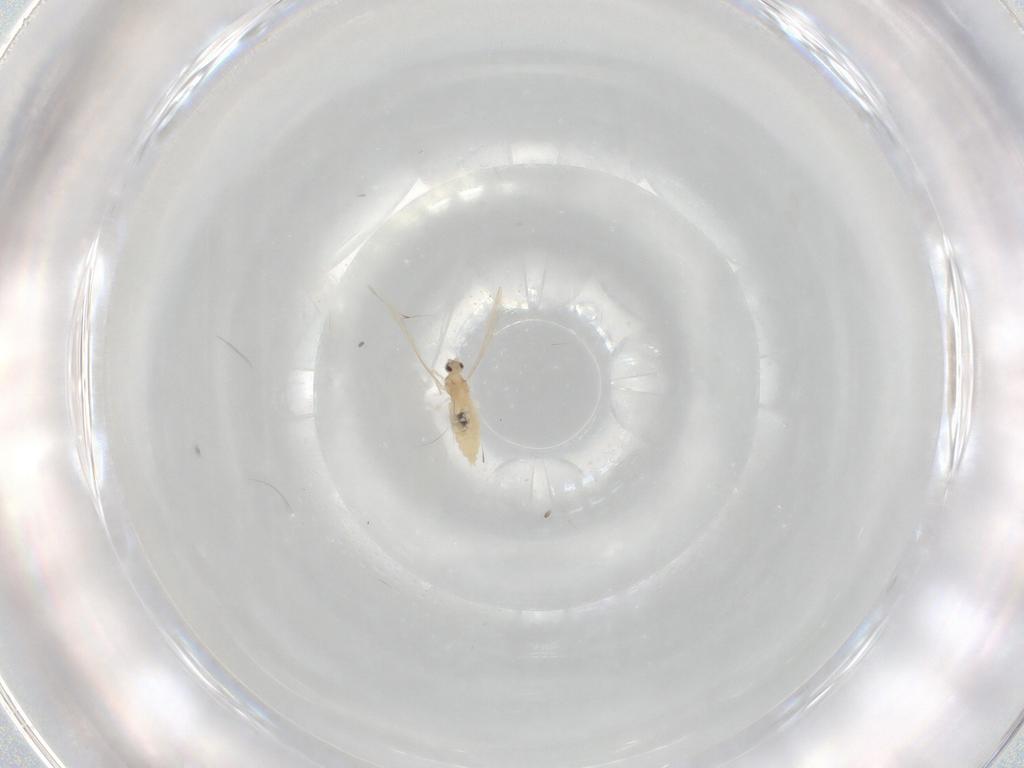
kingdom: Animalia
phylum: Arthropoda
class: Insecta
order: Diptera
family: Cecidomyiidae
